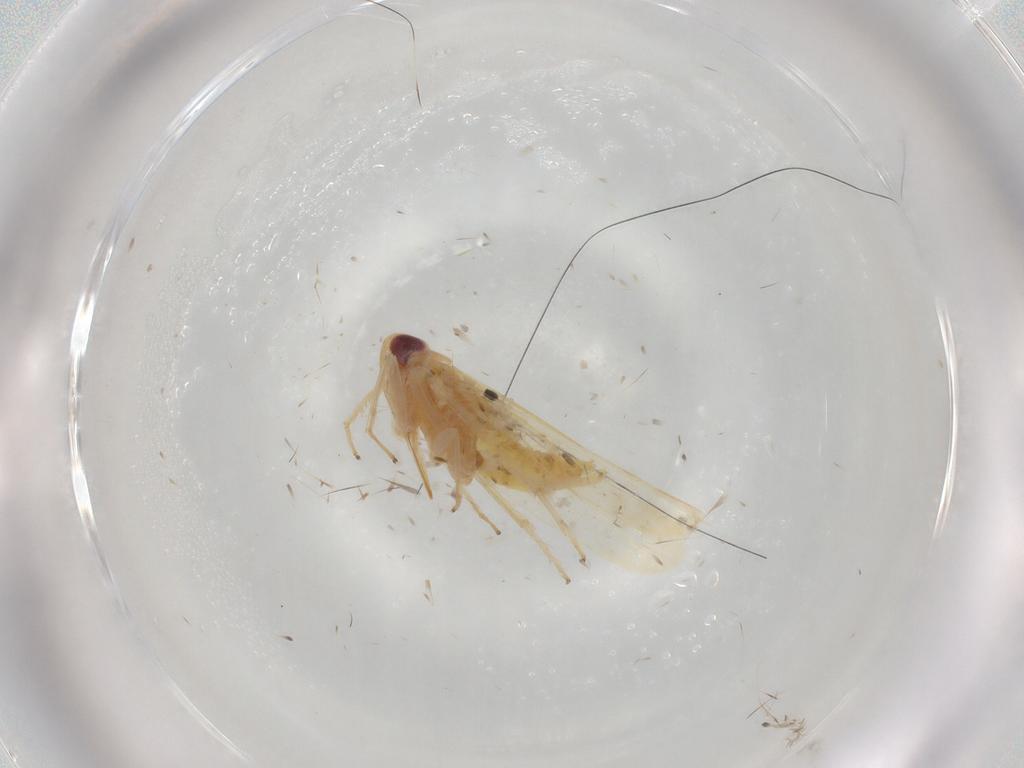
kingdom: Animalia
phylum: Arthropoda
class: Insecta
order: Hemiptera
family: Cicadellidae
